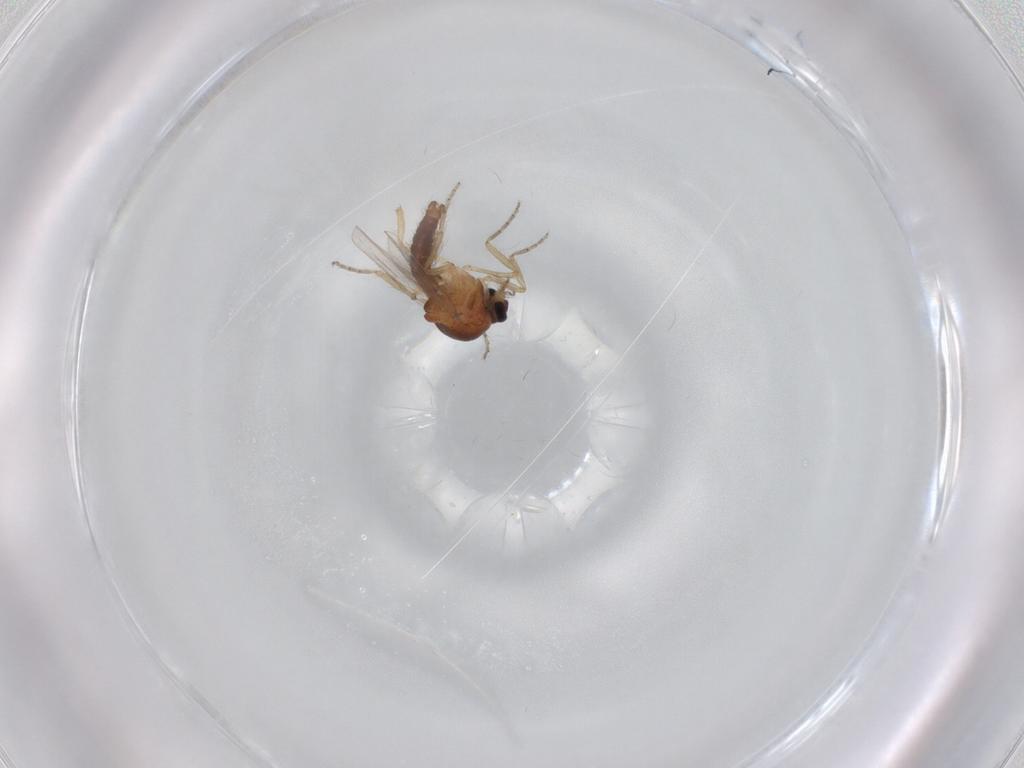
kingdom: Animalia
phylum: Arthropoda
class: Insecta
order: Diptera
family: Ceratopogonidae
